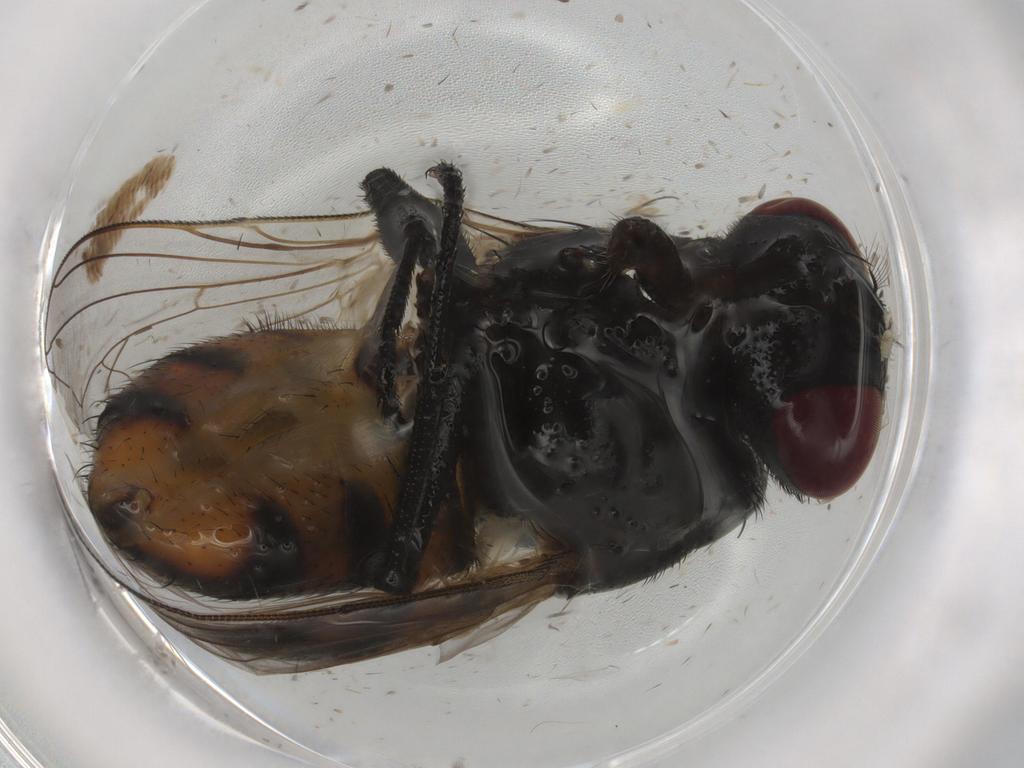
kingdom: Animalia
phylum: Arthropoda
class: Insecta
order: Diptera
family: Muscidae
